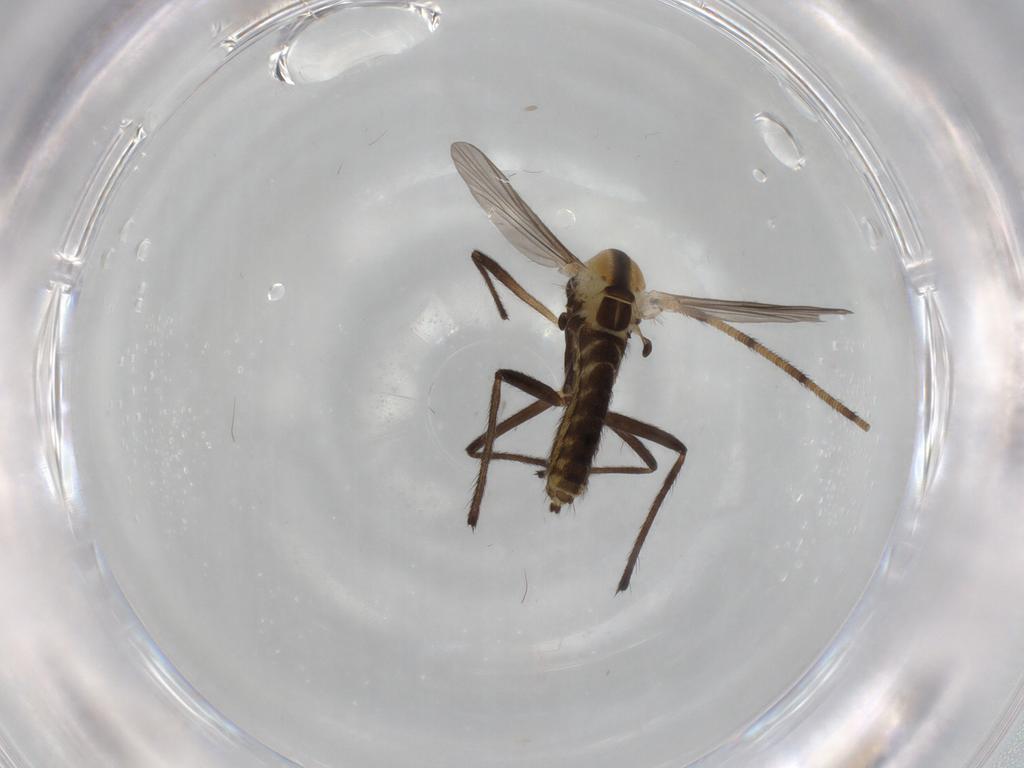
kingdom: Animalia
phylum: Arthropoda
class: Insecta
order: Diptera
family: Chironomidae
